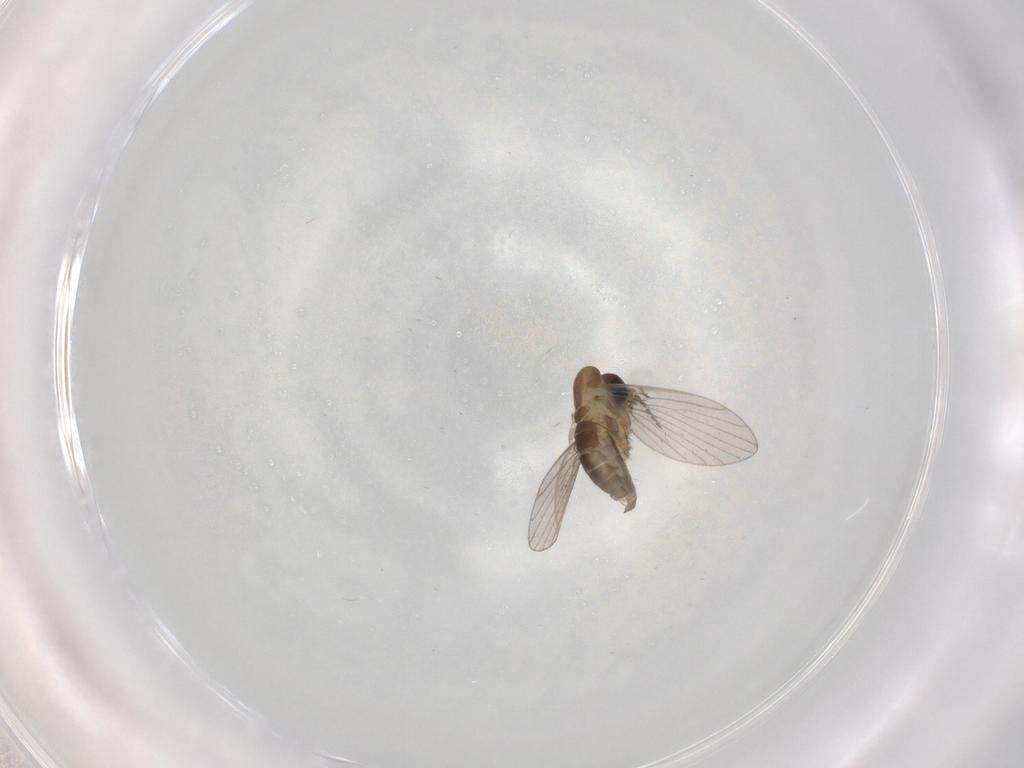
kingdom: Animalia
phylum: Arthropoda
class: Insecta
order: Diptera
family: Psychodidae
